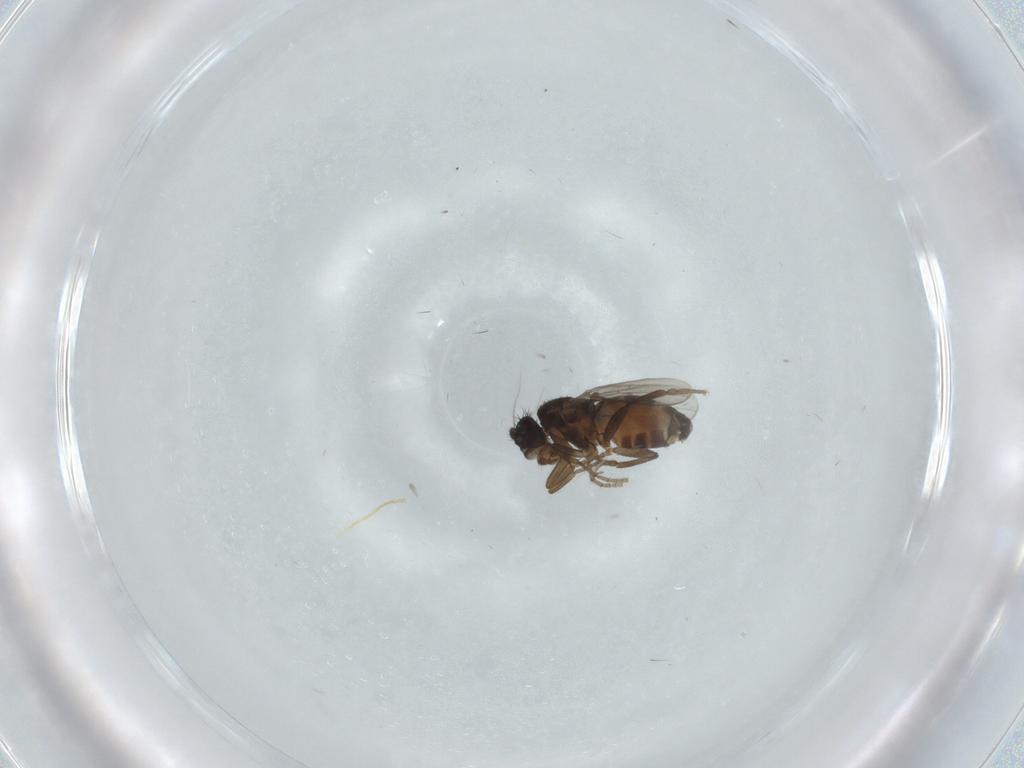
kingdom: Animalia
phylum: Arthropoda
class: Insecta
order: Diptera
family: Sphaeroceridae
